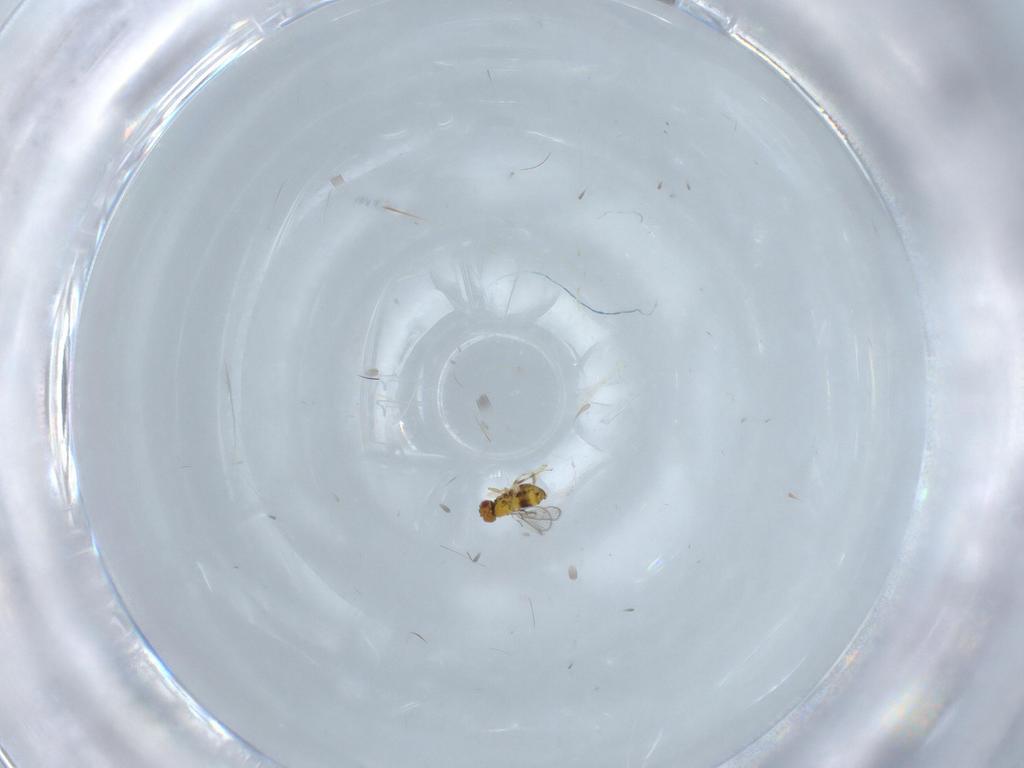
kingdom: Animalia
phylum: Arthropoda
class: Insecta
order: Hymenoptera
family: Trichogrammatidae
